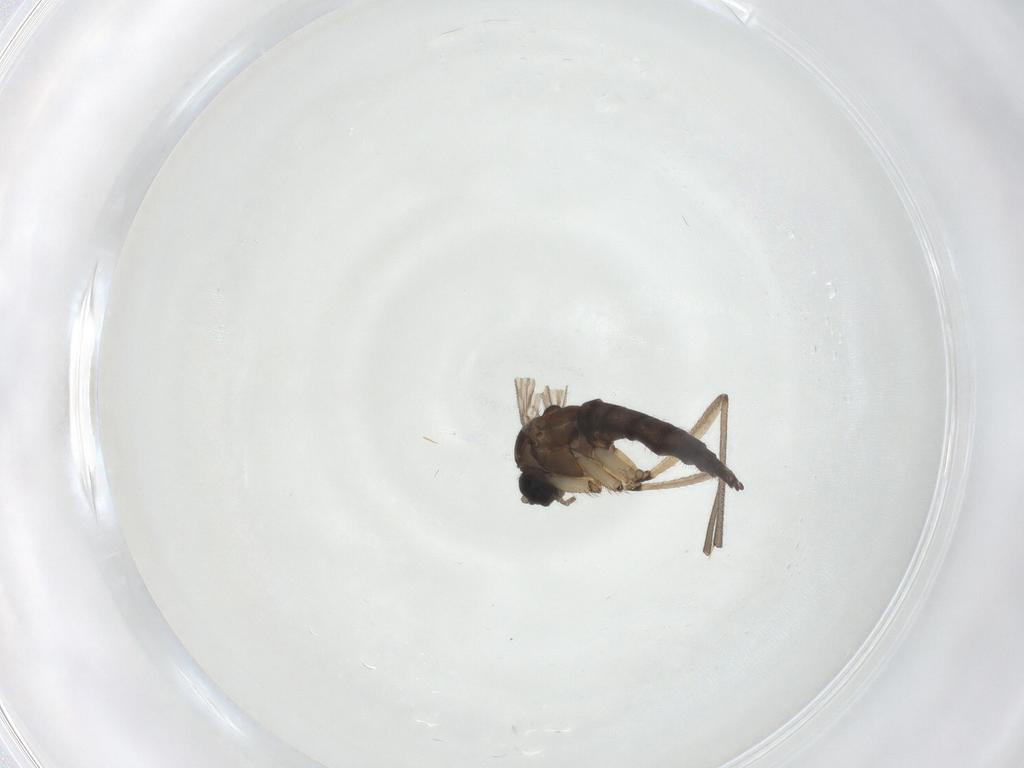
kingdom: Animalia
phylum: Arthropoda
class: Insecta
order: Diptera
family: Sciaridae
